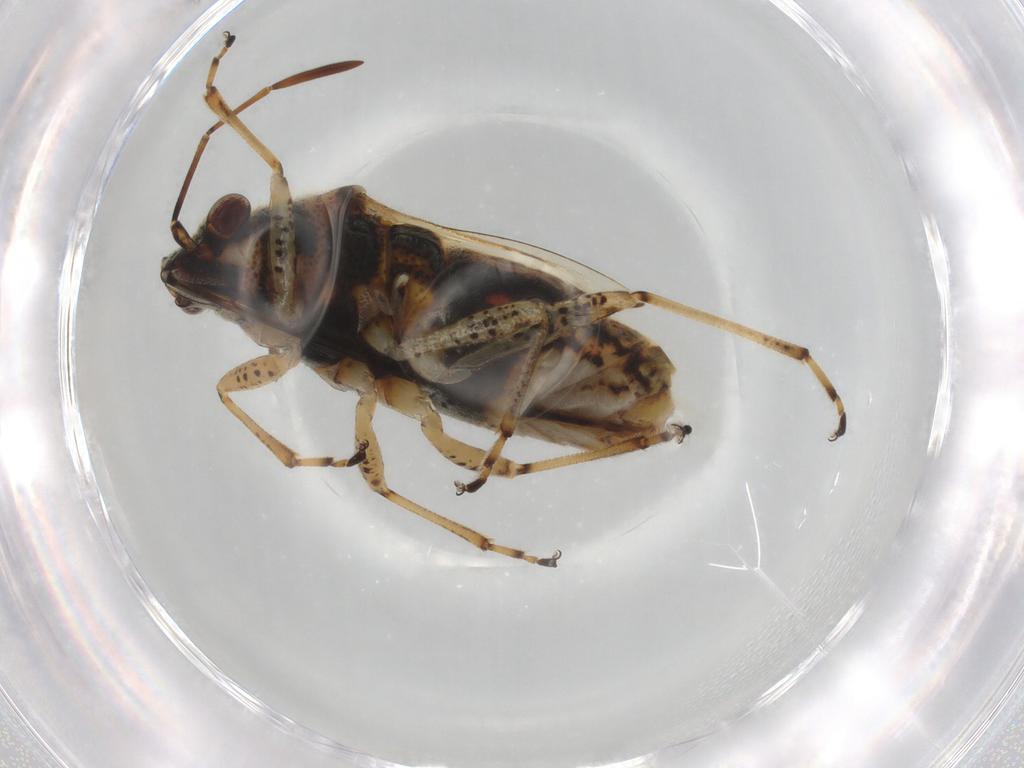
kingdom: Animalia
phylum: Arthropoda
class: Insecta
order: Hemiptera
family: Lygaeidae
